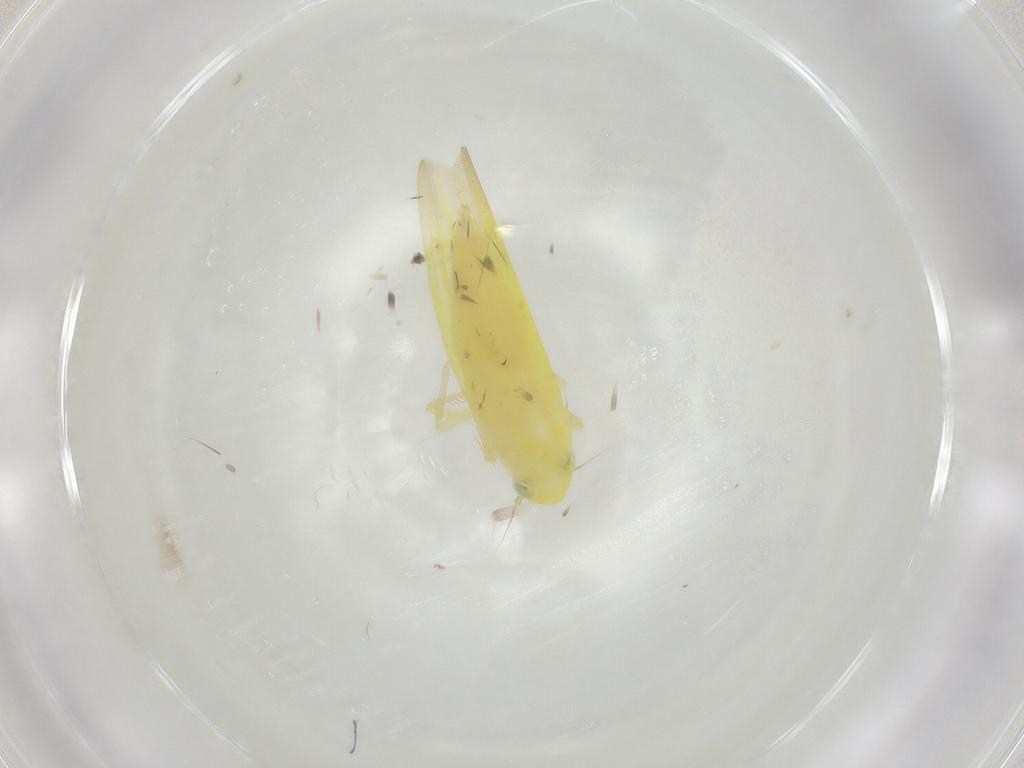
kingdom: Animalia
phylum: Arthropoda
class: Insecta
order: Hemiptera
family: Cicadellidae
